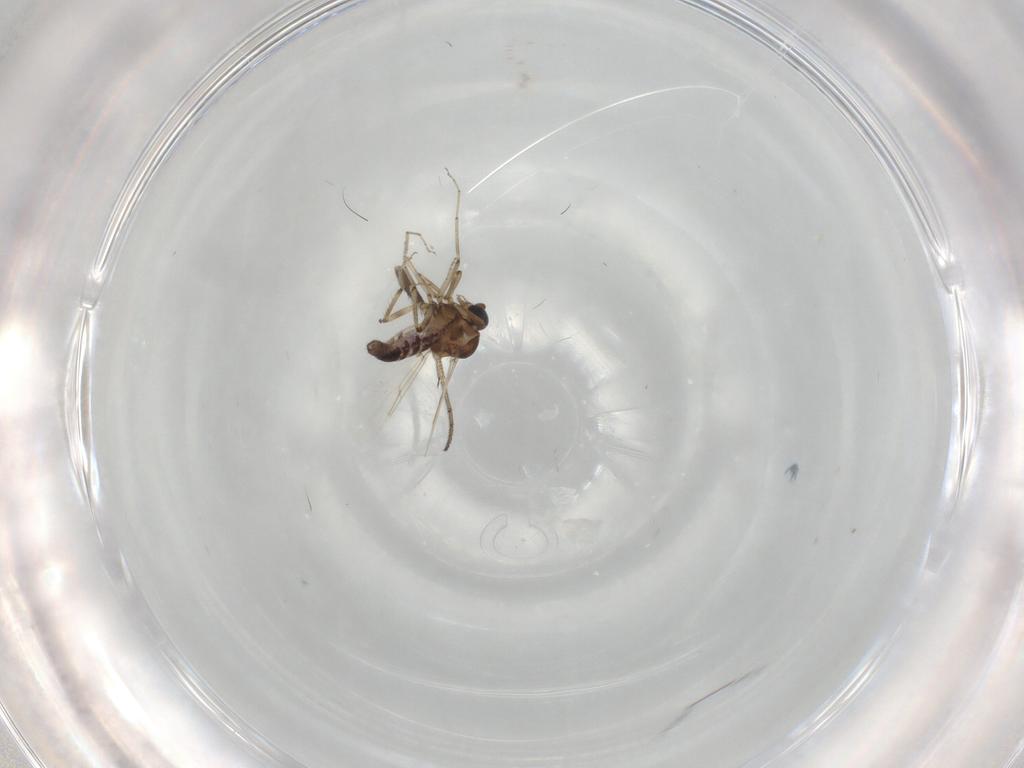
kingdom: Animalia
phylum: Arthropoda
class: Insecta
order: Diptera
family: Ceratopogonidae
